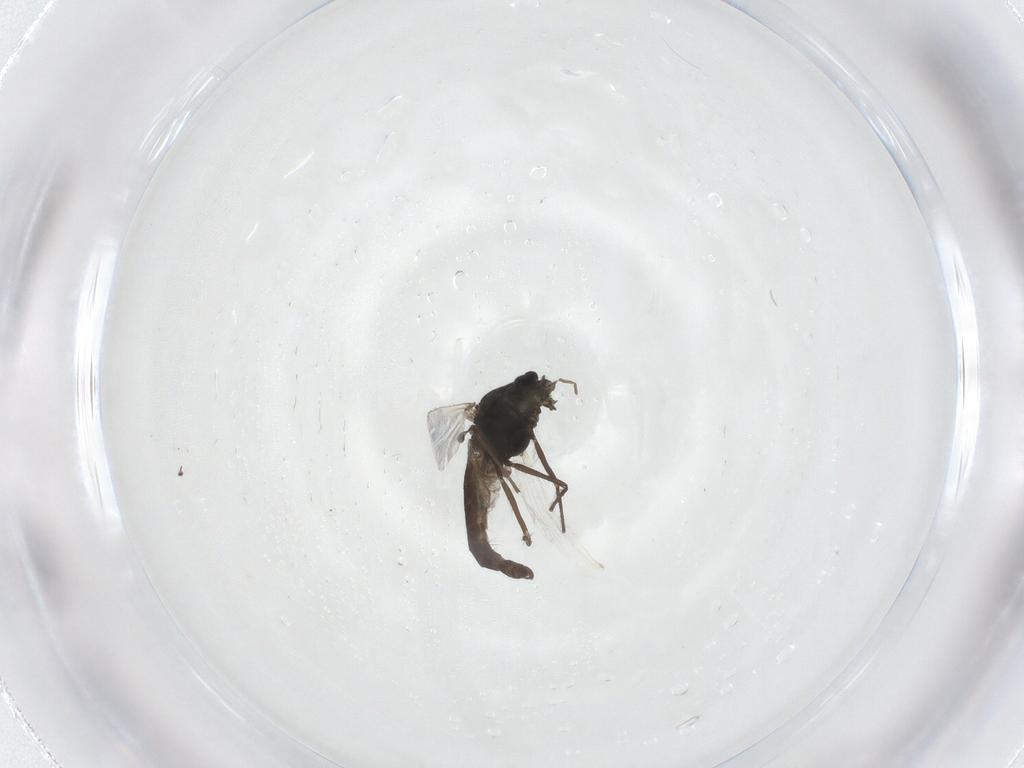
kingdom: Animalia
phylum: Arthropoda
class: Insecta
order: Diptera
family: Chironomidae
